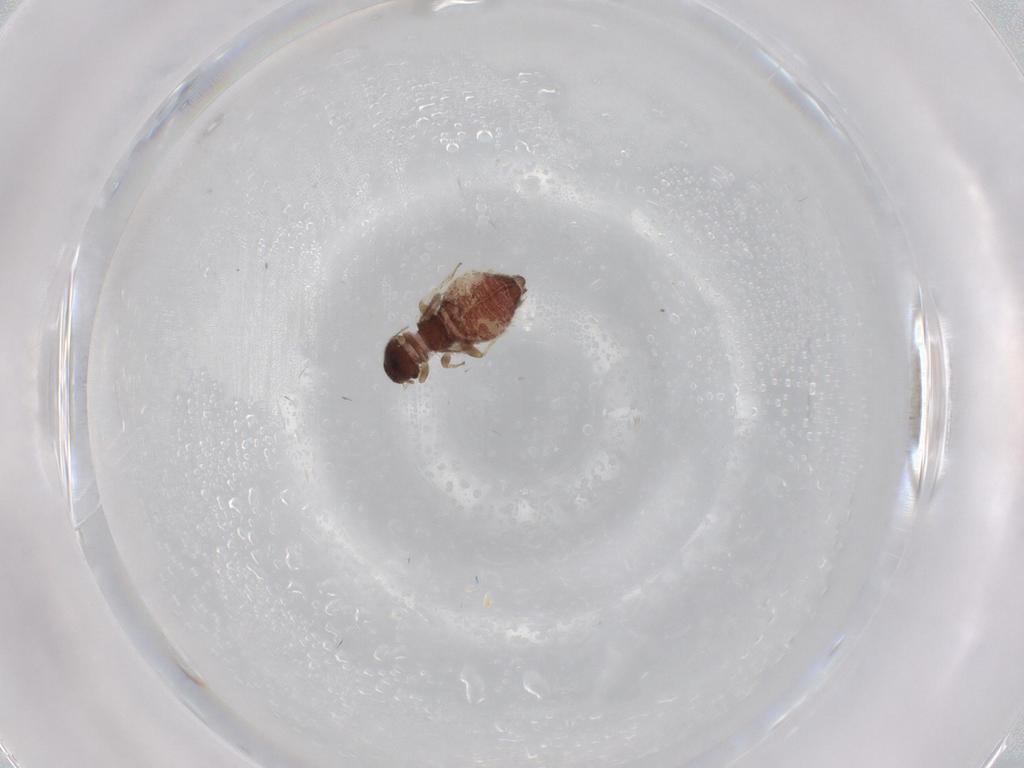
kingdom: Animalia
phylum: Arthropoda
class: Insecta
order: Psocodea
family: Archipsocidae
